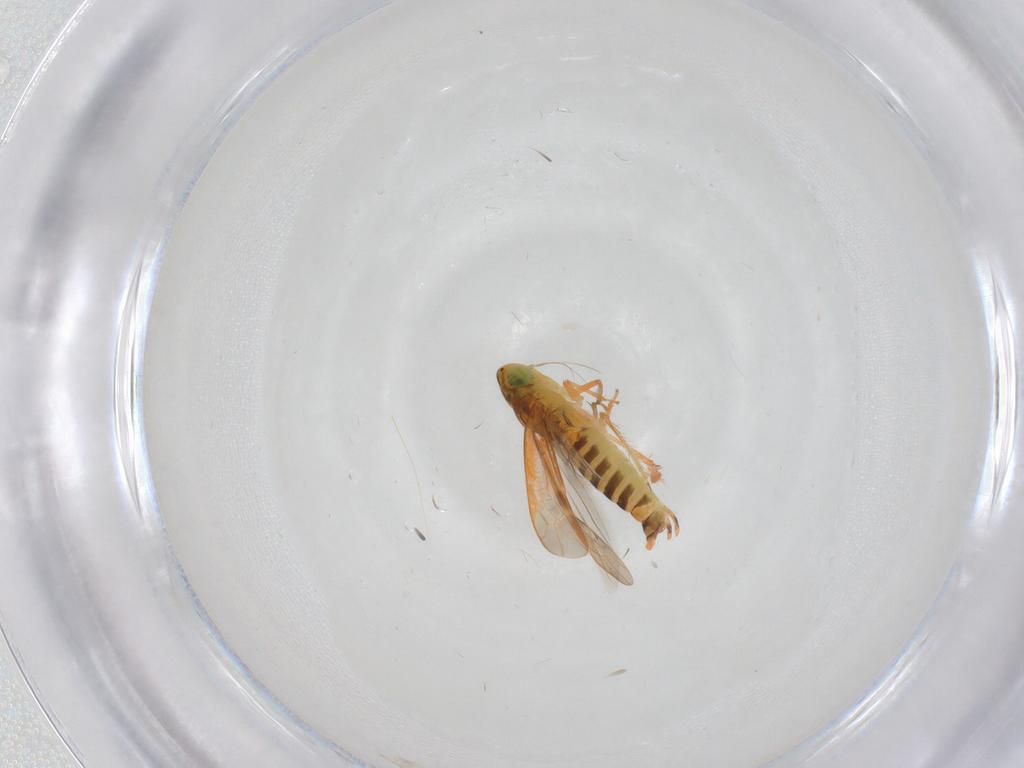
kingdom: Animalia
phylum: Arthropoda
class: Insecta
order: Hemiptera
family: Cicadellidae
